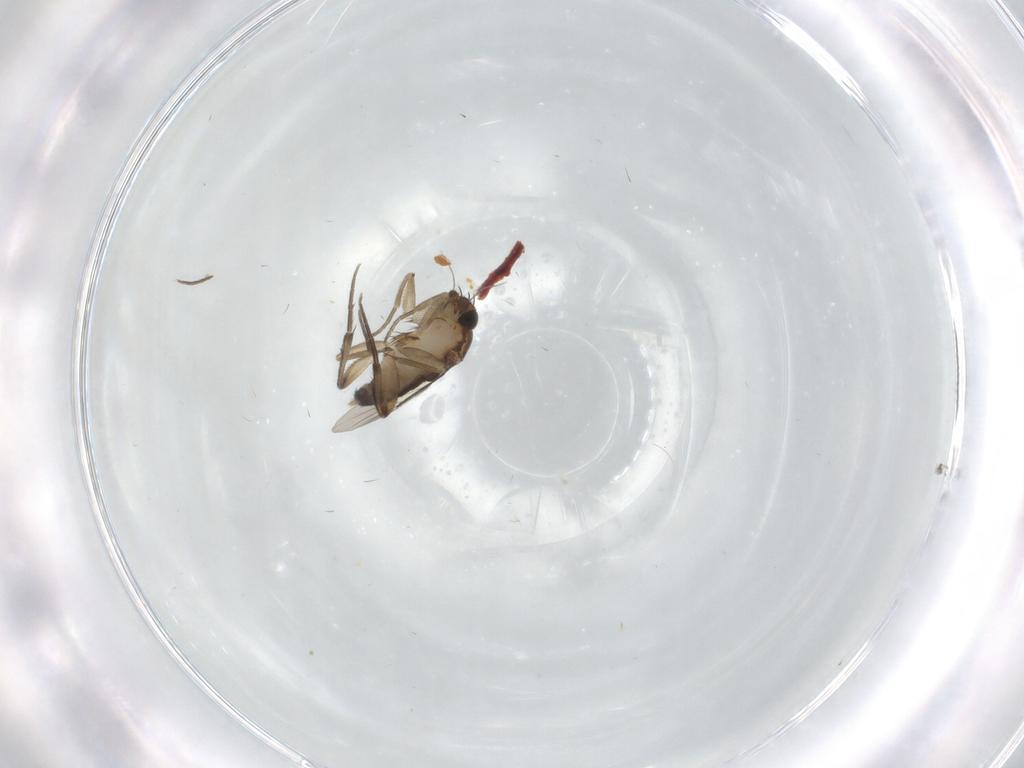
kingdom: Animalia
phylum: Arthropoda
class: Insecta
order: Diptera
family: Phoridae
